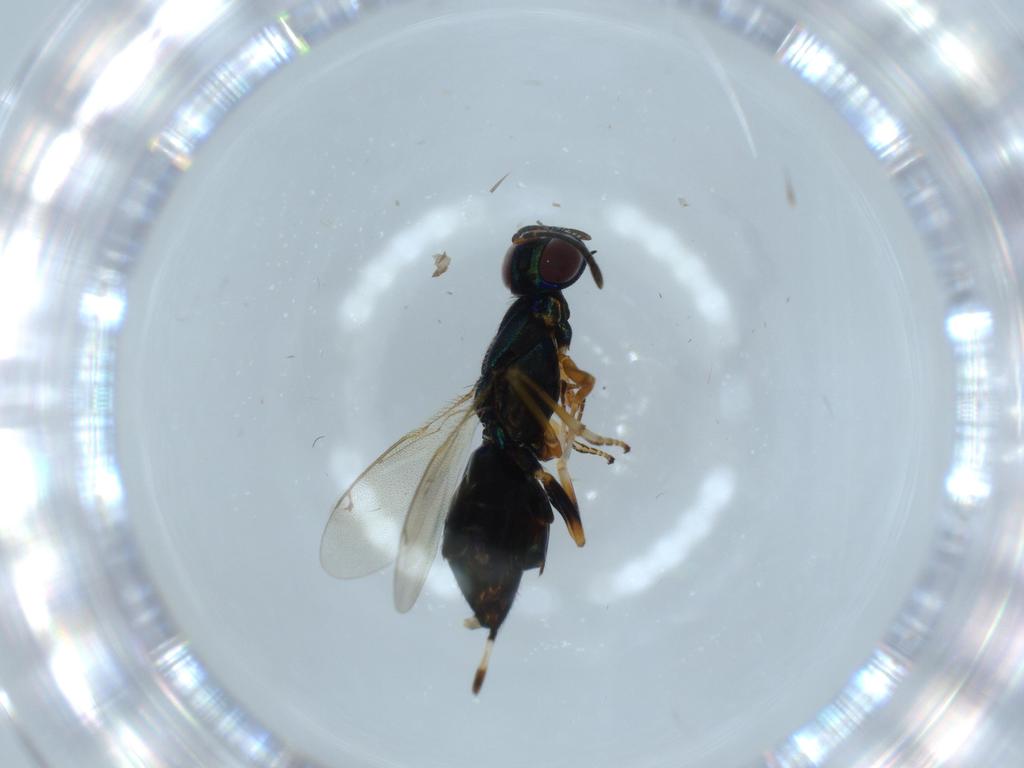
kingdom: Animalia
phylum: Arthropoda
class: Insecta
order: Hymenoptera
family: Eupelmidae
